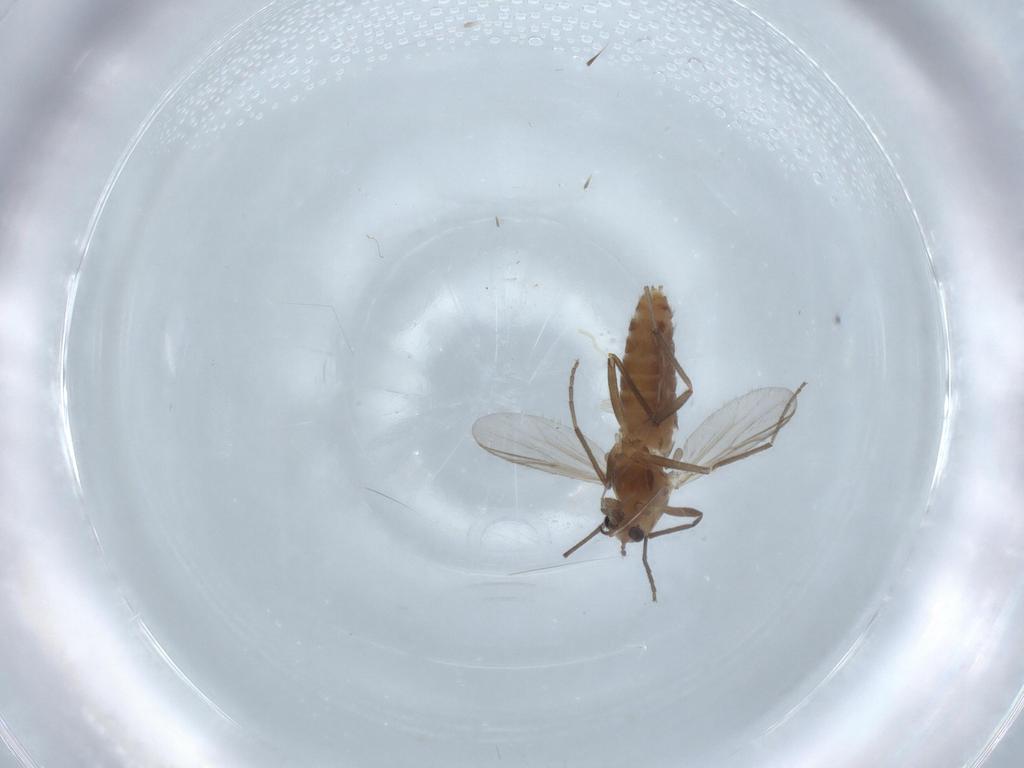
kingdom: Animalia
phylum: Arthropoda
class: Insecta
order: Diptera
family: Chironomidae
